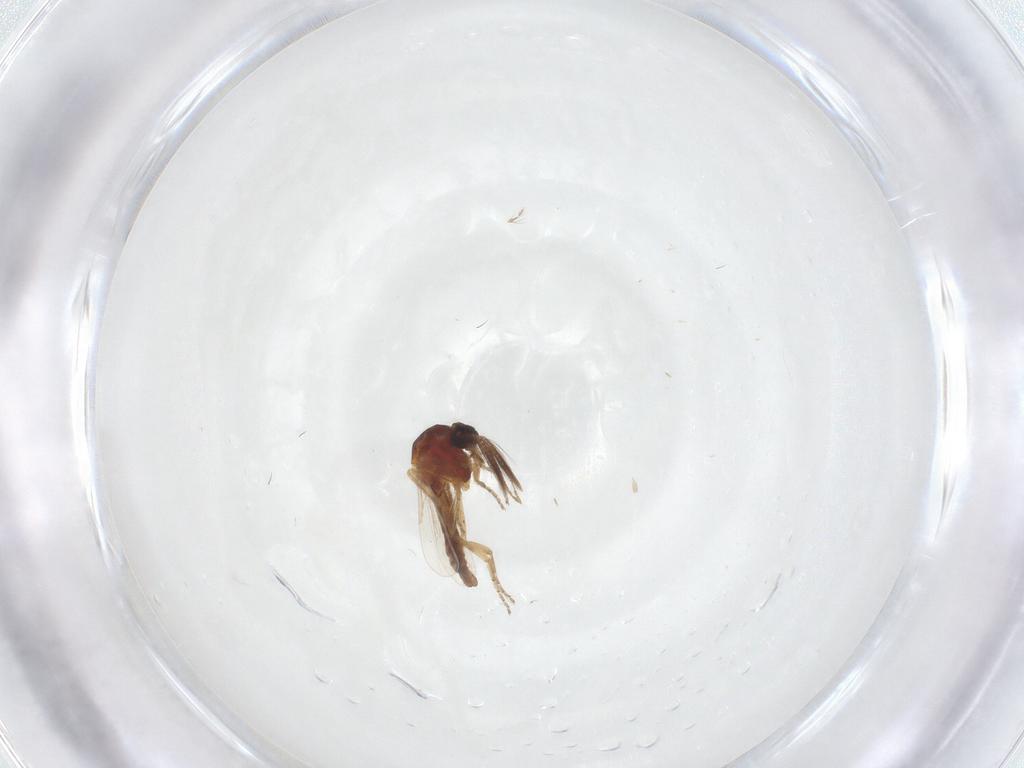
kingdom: Animalia
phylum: Arthropoda
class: Insecta
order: Diptera
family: Ceratopogonidae
